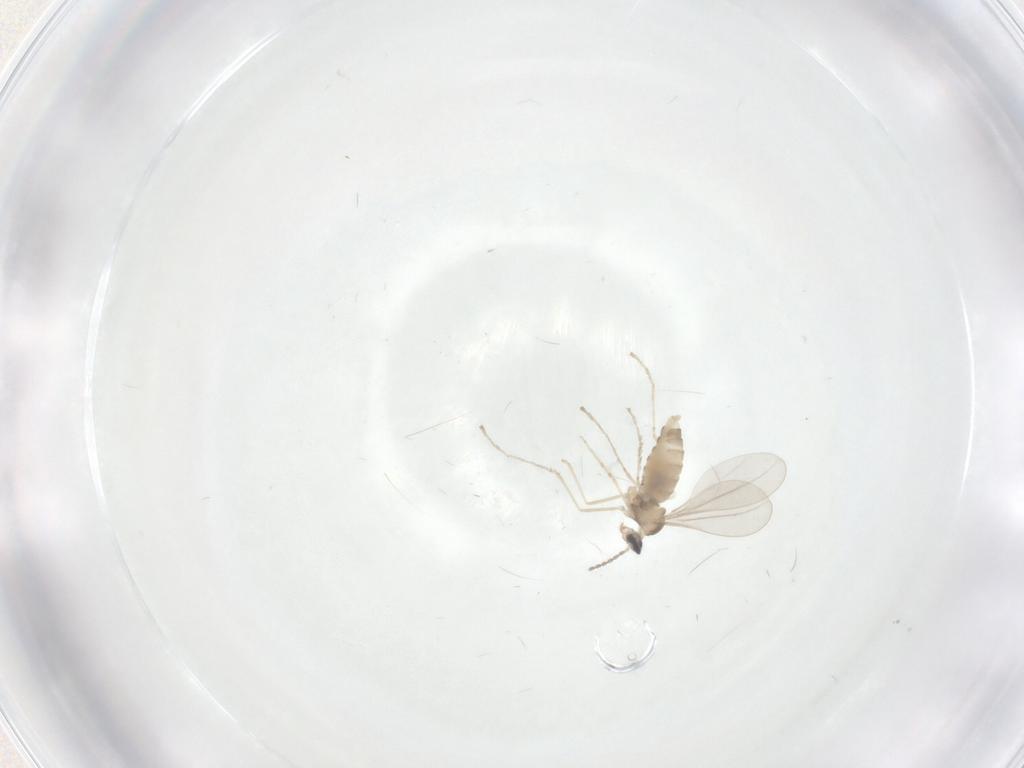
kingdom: Animalia
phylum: Arthropoda
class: Insecta
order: Diptera
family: Cecidomyiidae
